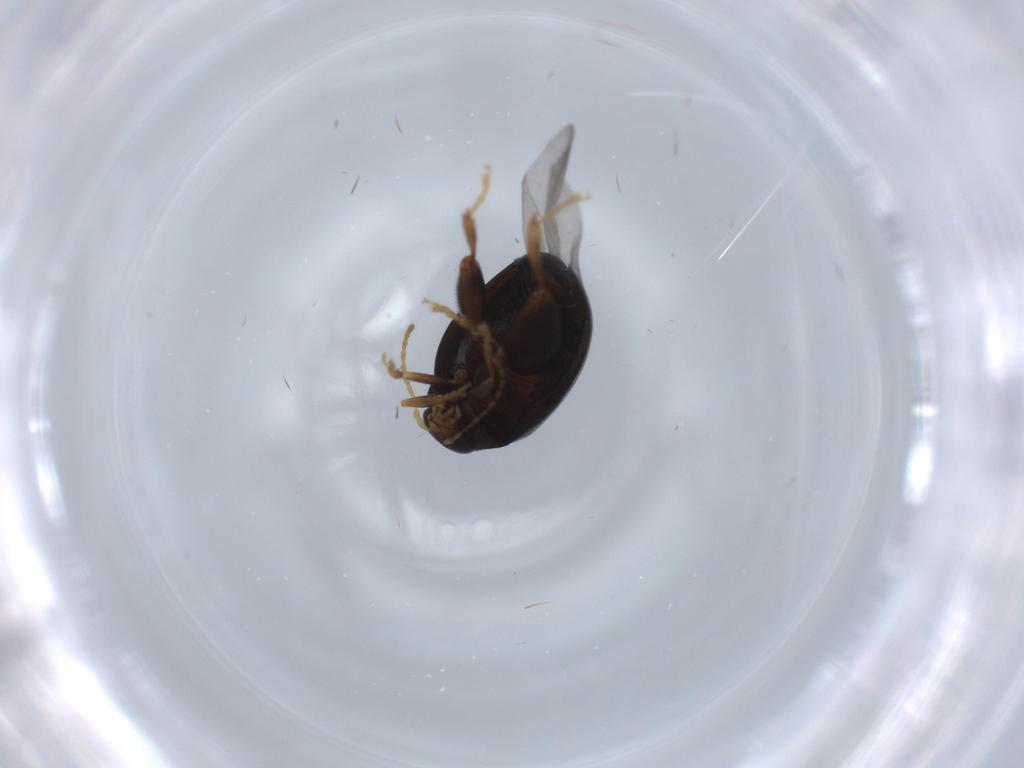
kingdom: Animalia
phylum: Arthropoda
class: Insecta
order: Coleoptera
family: Chrysomelidae
